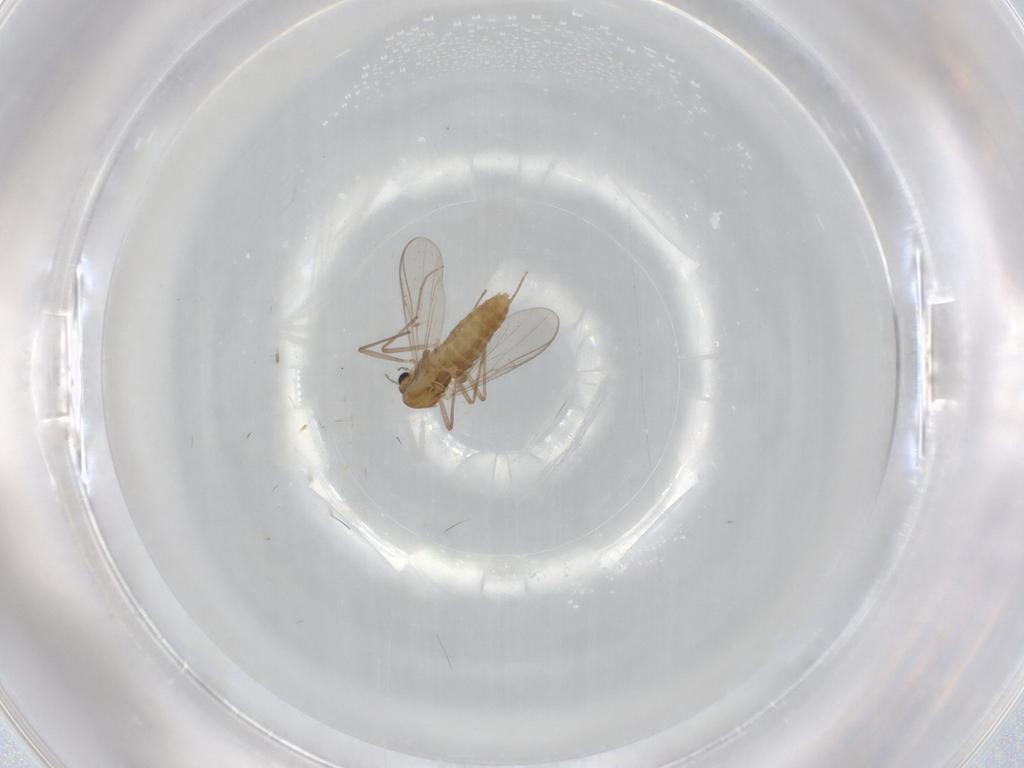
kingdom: Animalia
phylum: Arthropoda
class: Insecta
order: Diptera
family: Chironomidae
